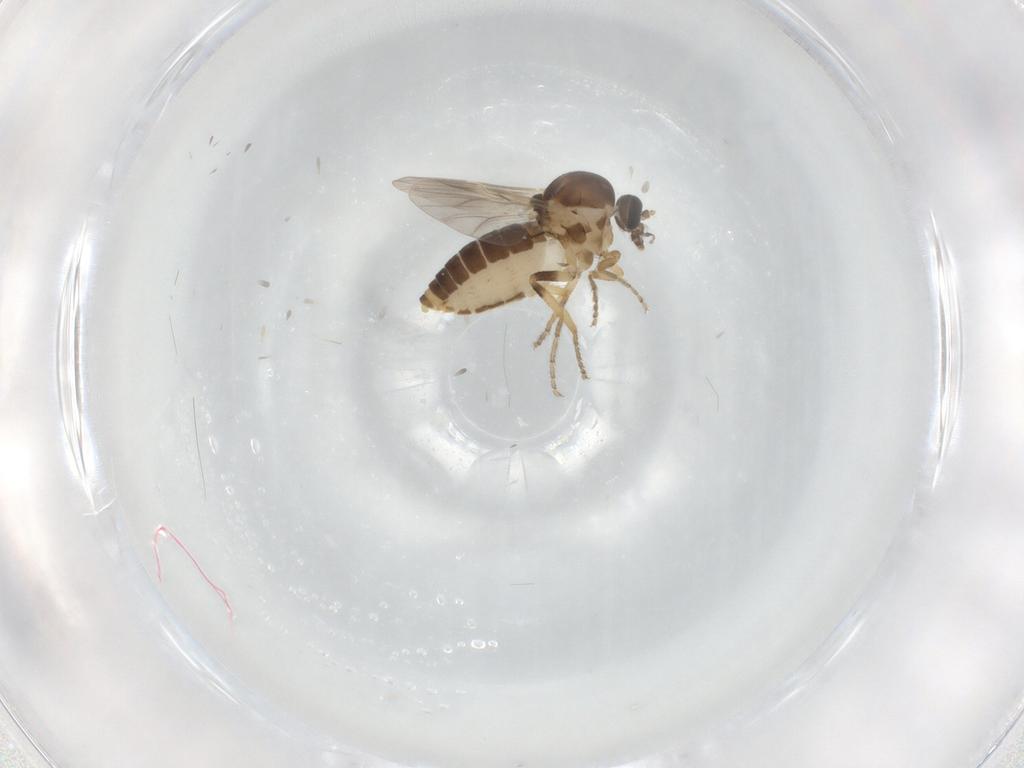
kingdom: Animalia
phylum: Arthropoda
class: Insecta
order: Diptera
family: Ceratopogonidae
